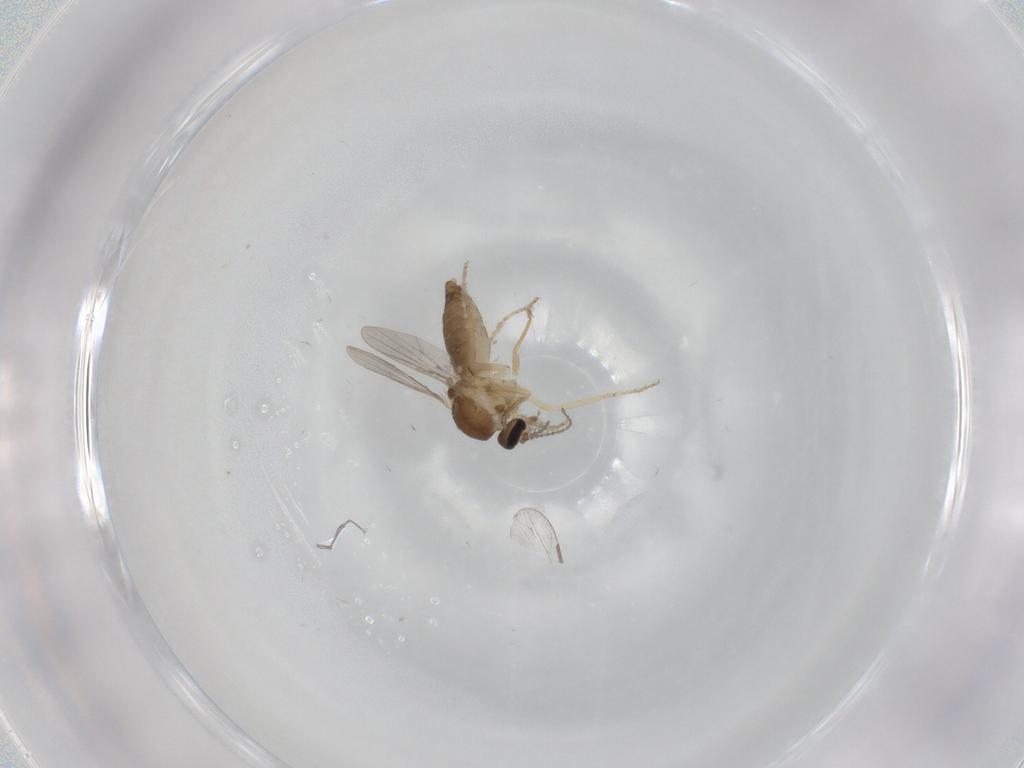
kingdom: Animalia
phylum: Arthropoda
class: Insecta
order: Diptera
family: Ceratopogonidae
